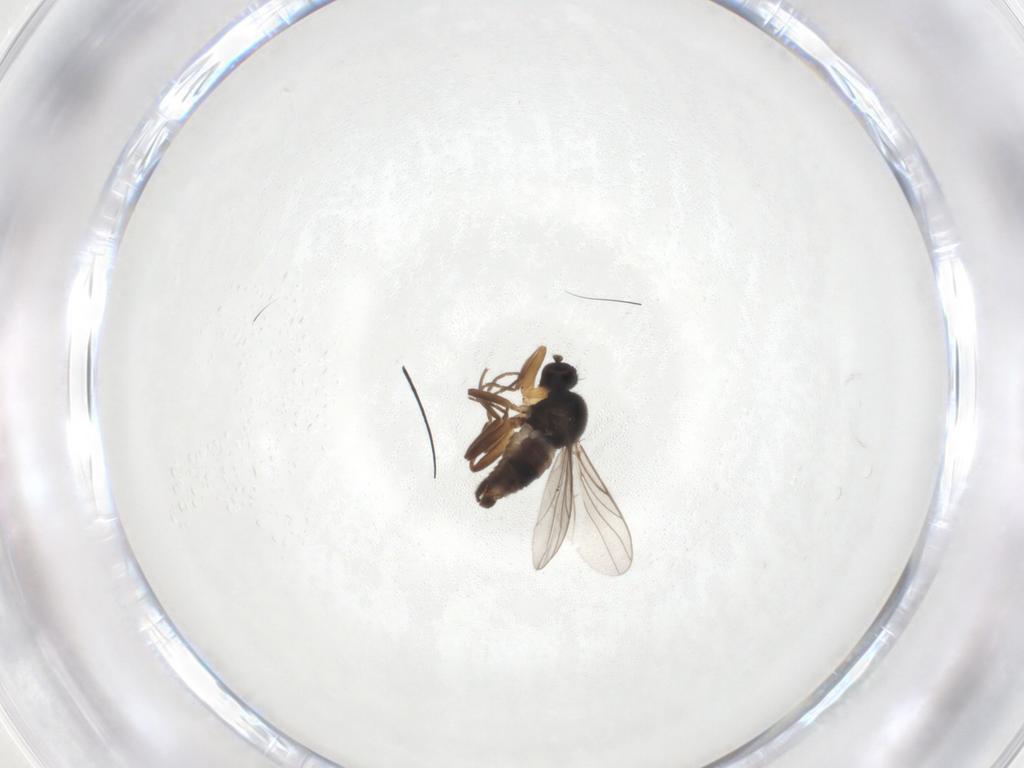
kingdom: Animalia
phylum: Arthropoda
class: Insecta
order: Diptera
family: Hybotidae
